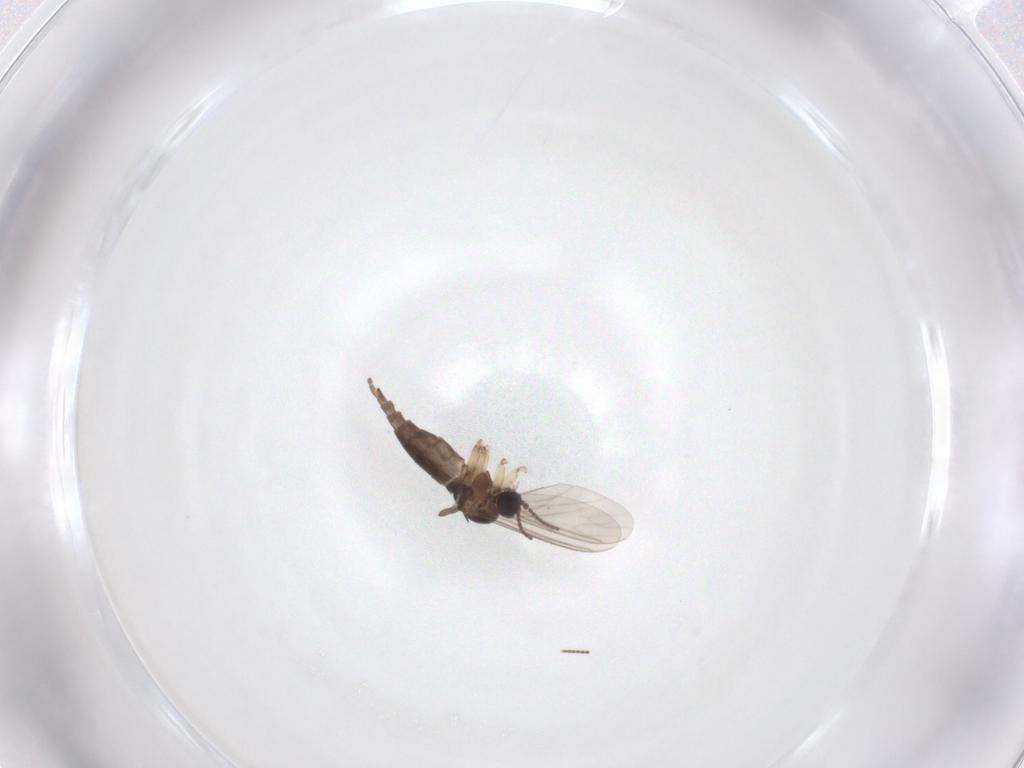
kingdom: Animalia
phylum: Arthropoda
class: Insecta
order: Diptera
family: Sciaridae
